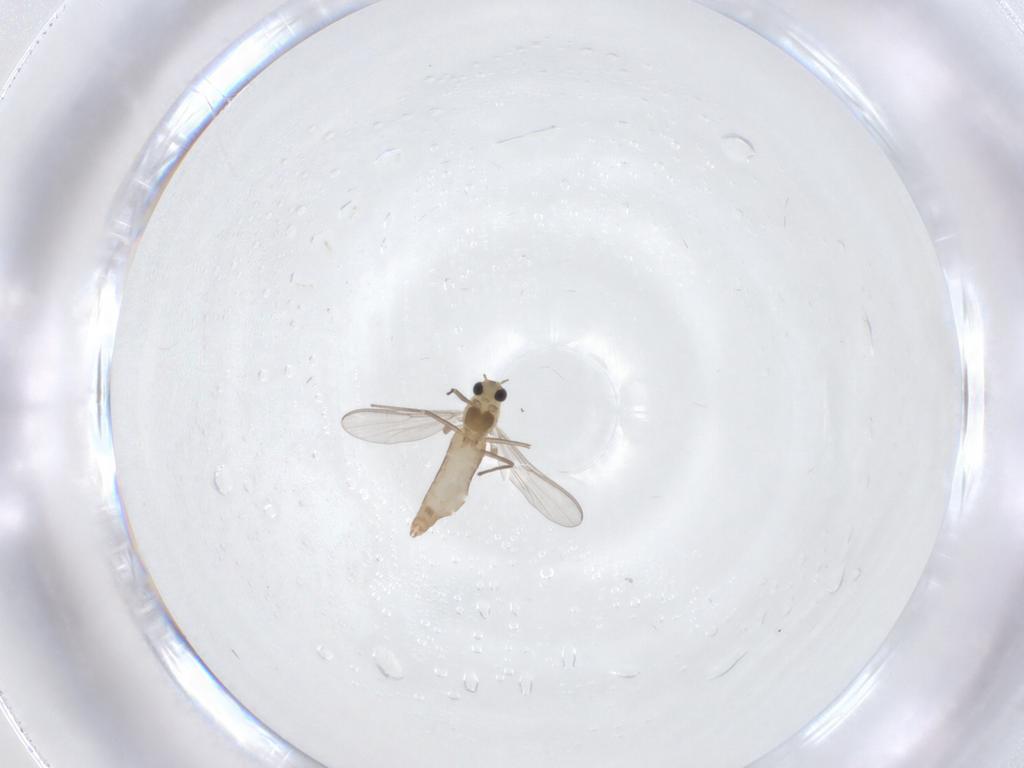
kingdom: Animalia
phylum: Arthropoda
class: Insecta
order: Diptera
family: Chironomidae
